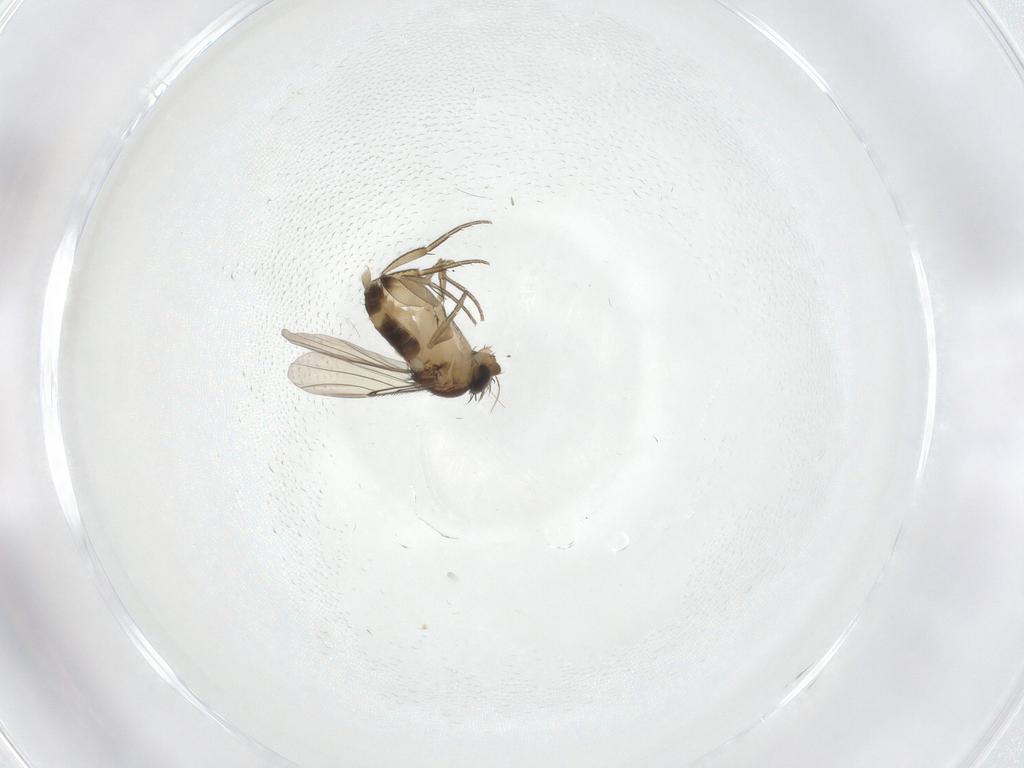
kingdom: Animalia
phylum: Arthropoda
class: Insecta
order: Diptera
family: Phoridae
